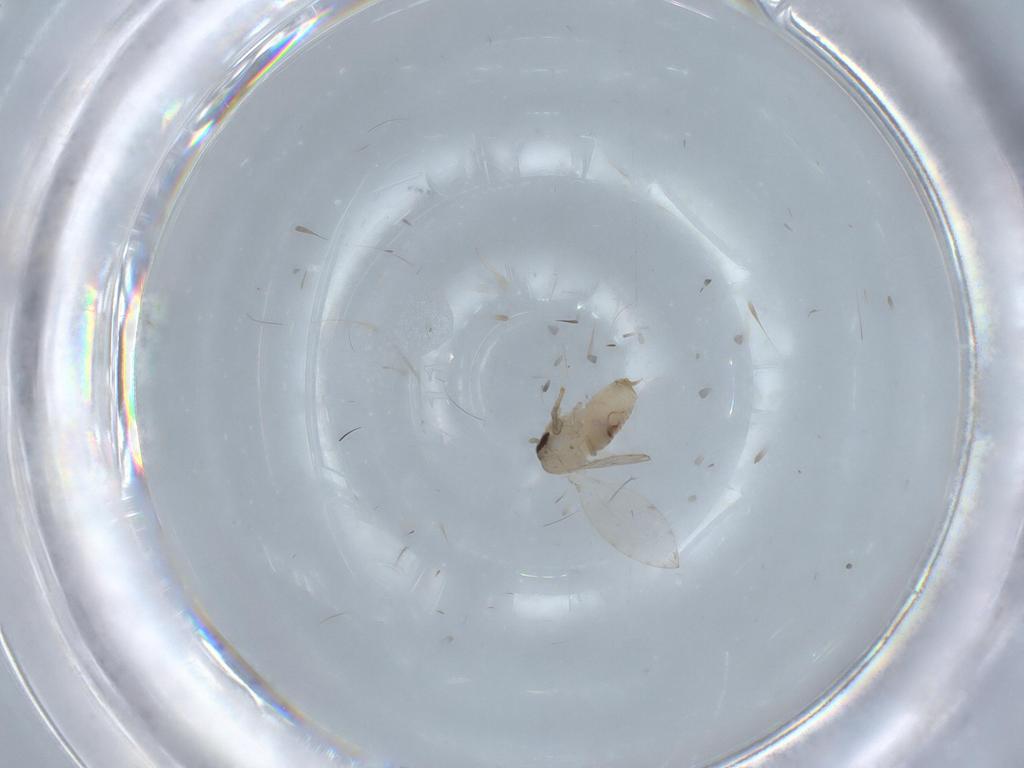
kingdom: Animalia
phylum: Arthropoda
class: Insecta
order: Diptera
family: Psychodidae
